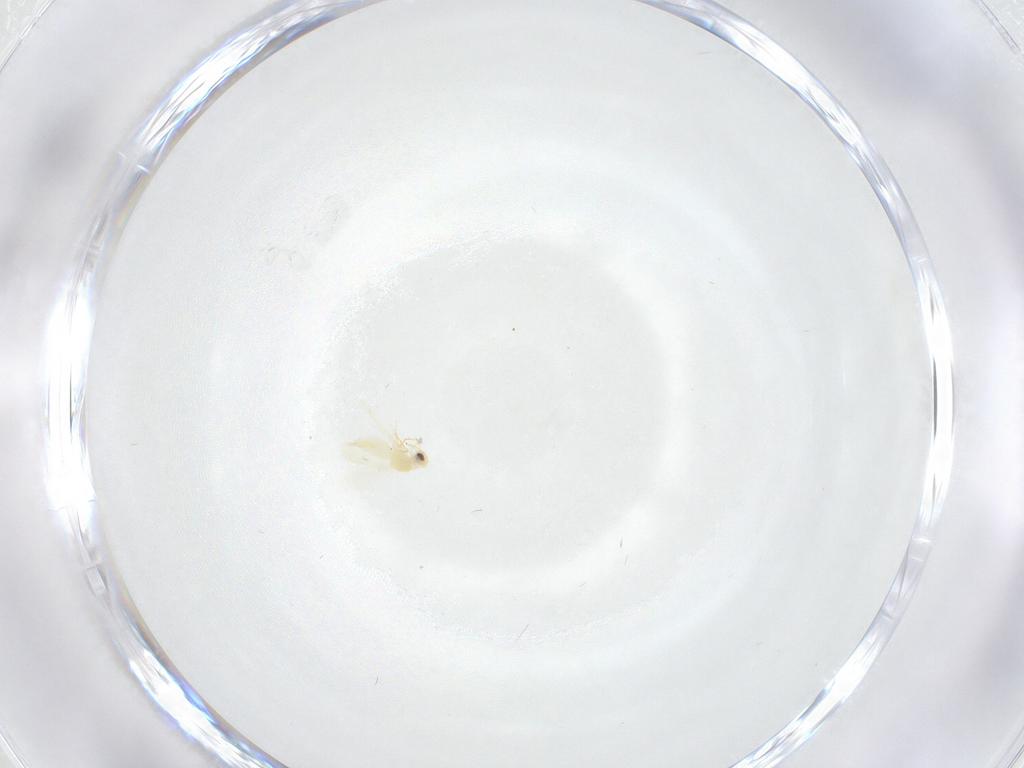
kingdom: Animalia
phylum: Arthropoda
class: Insecta
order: Hemiptera
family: Aleyrodidae
